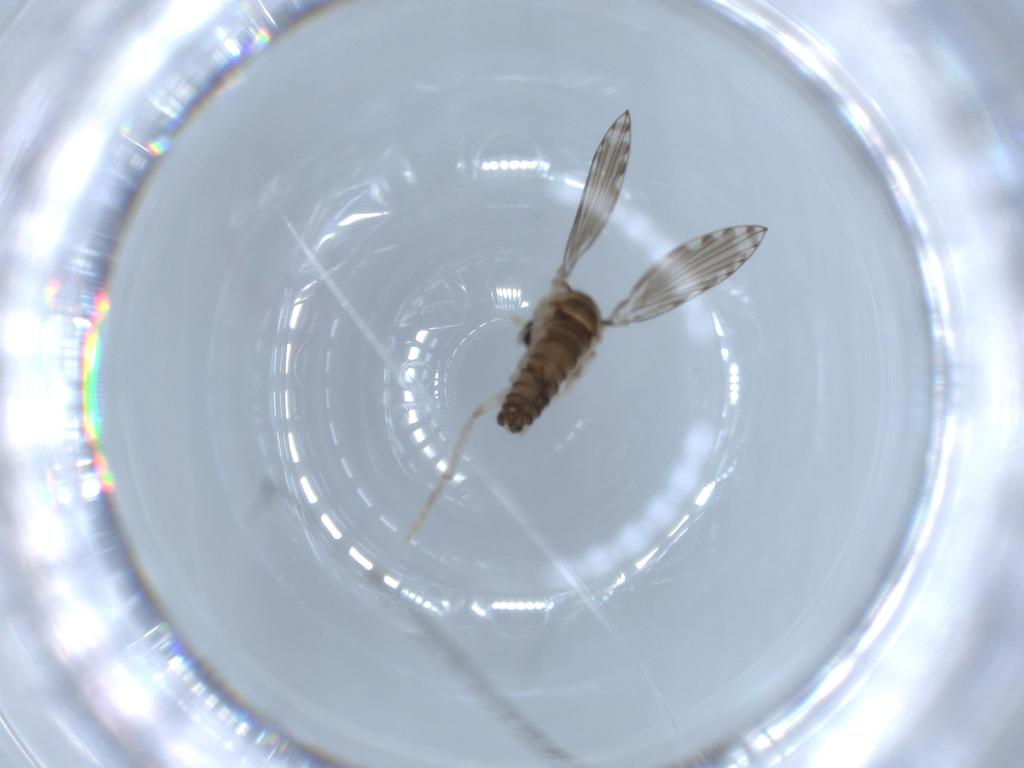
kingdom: Animalia
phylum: Arthropoda
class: Insecta
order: Diptera
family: Psychodidae
